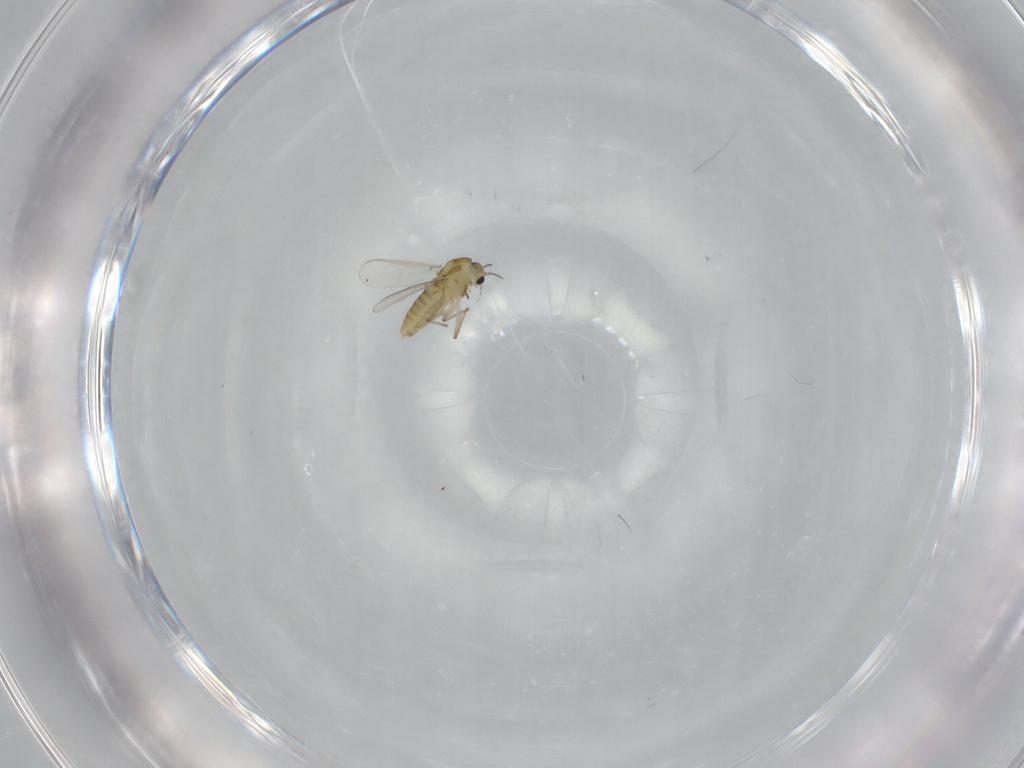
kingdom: Animalia
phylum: Arthropoda
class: Insecta
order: Diptera
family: Chironomidae
